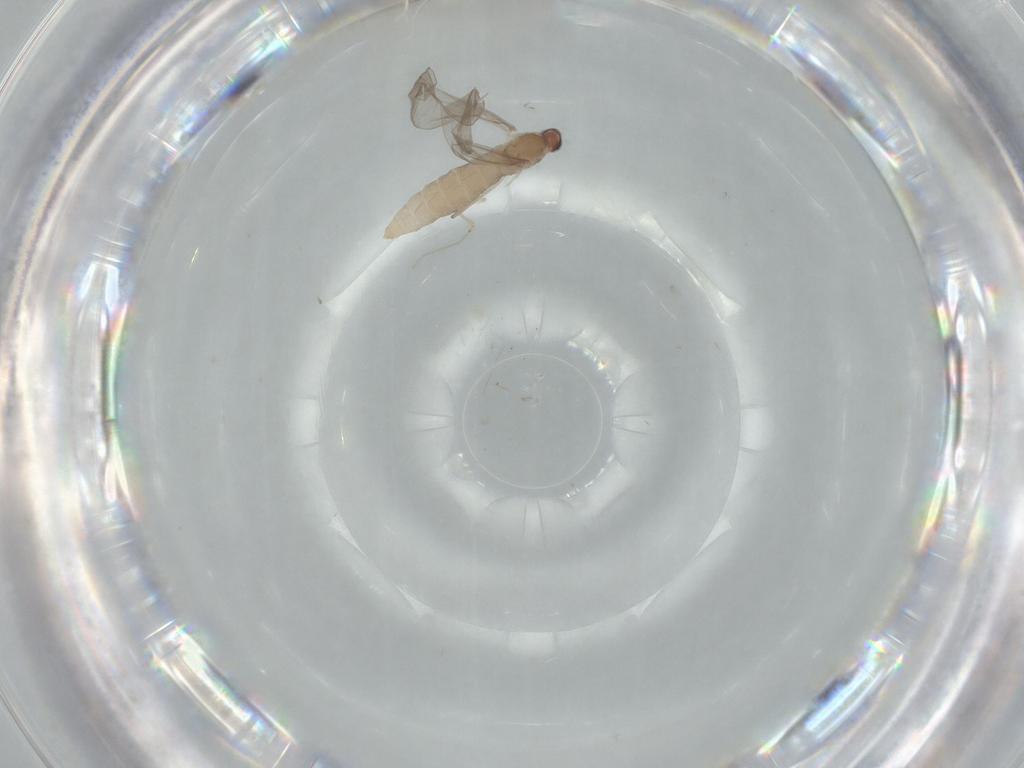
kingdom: Animalia
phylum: Arthropoda
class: Insecta
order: Diptera
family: Cecidomyiidae
